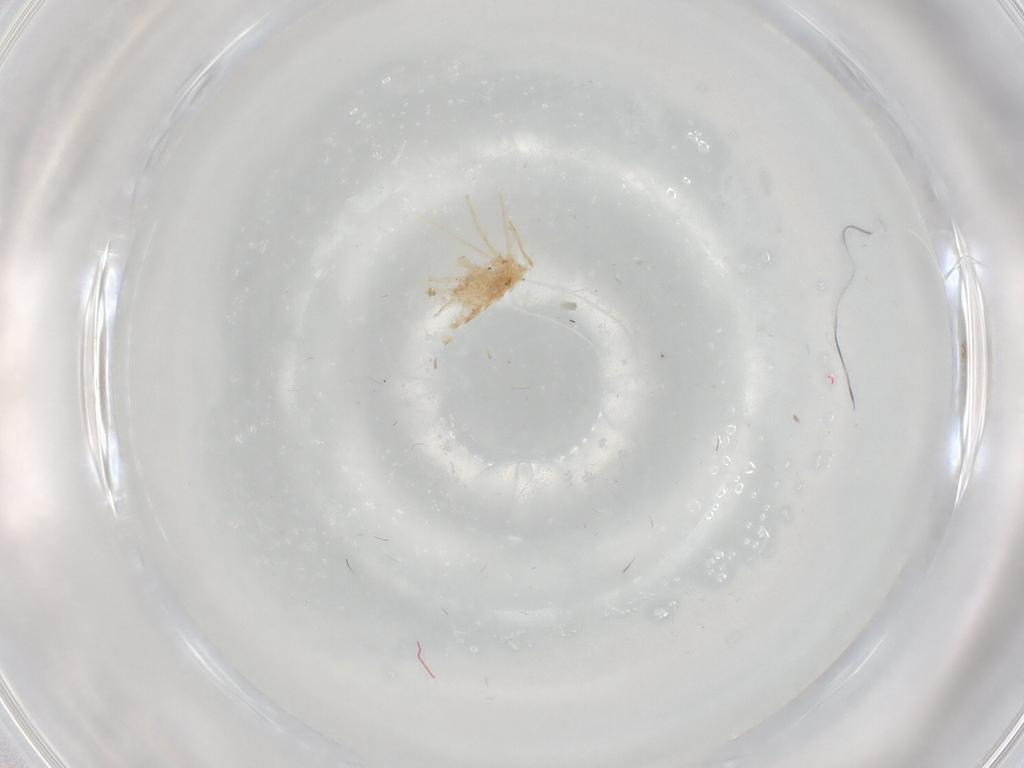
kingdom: Animalia
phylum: Arthropoda
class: Insecta
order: Diptera
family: Cecidomyiidae
